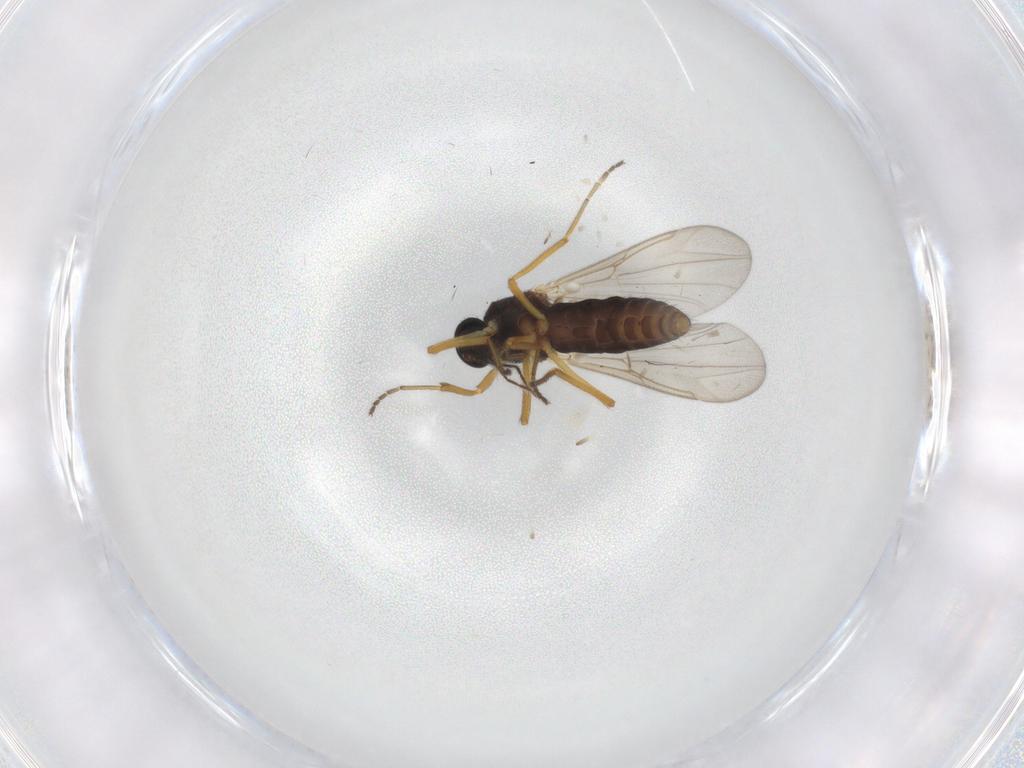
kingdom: Animalia
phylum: Arthropoda
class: Insecta
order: Diptera
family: Ceratopogonidae
